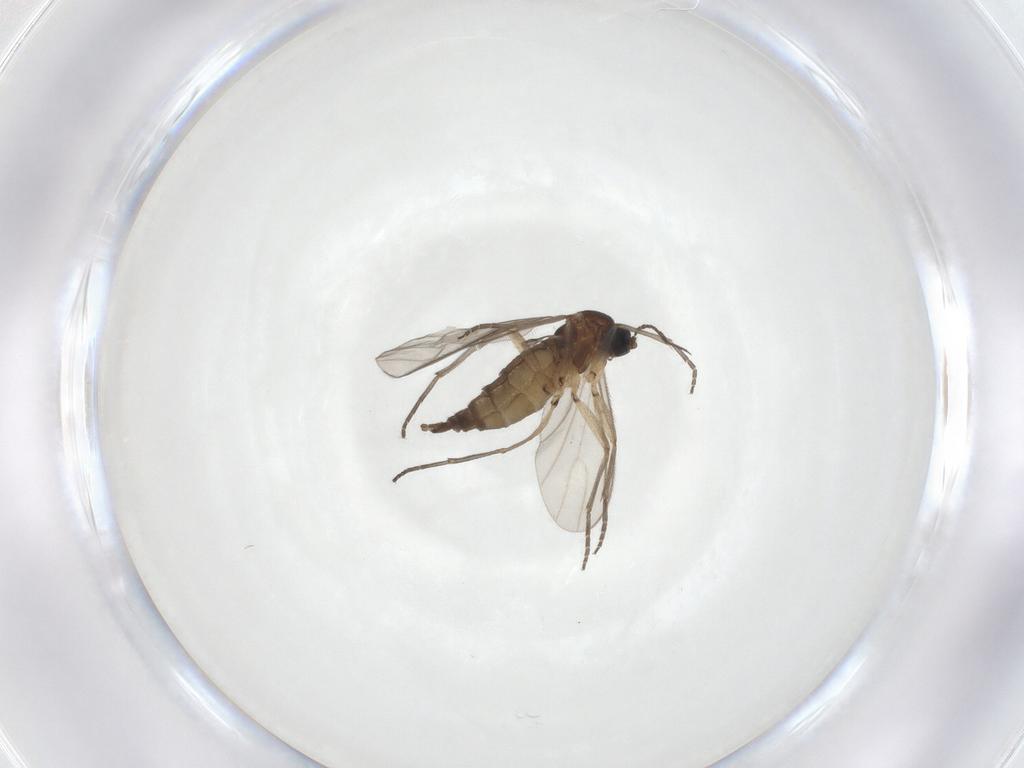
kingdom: Animalia
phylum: Arthropoda
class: Insecta
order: Diptera
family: Sciaridae
